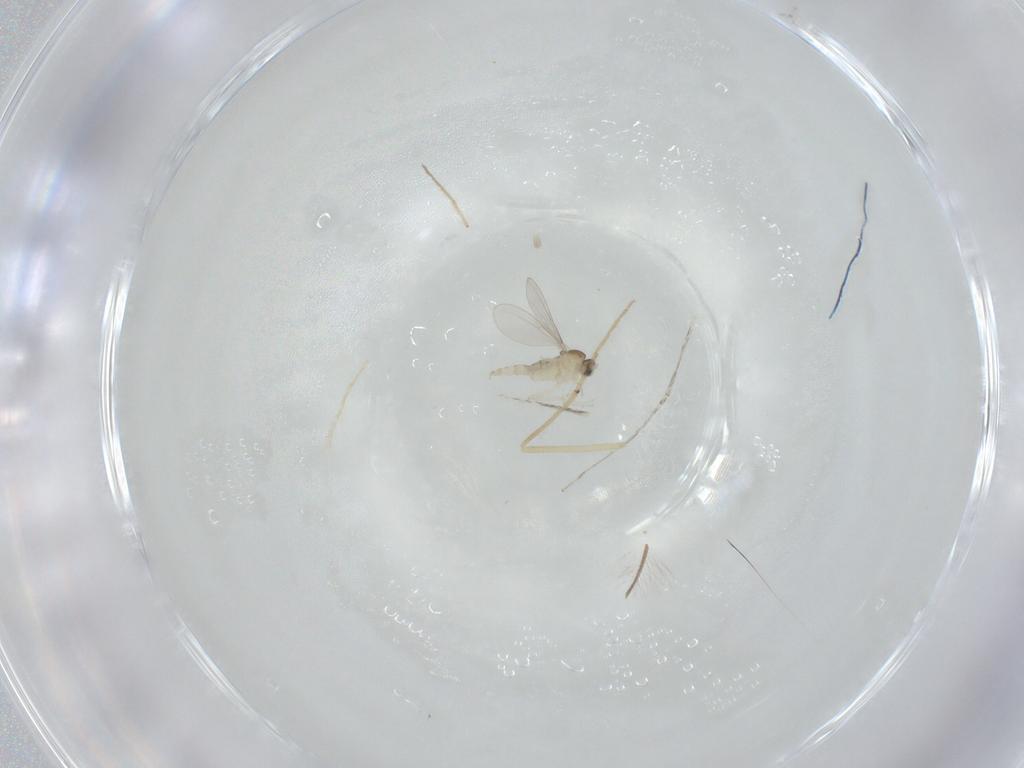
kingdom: Animalia
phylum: Arthropoda
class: Insecta
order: Diptera
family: Cecidomyiidae
